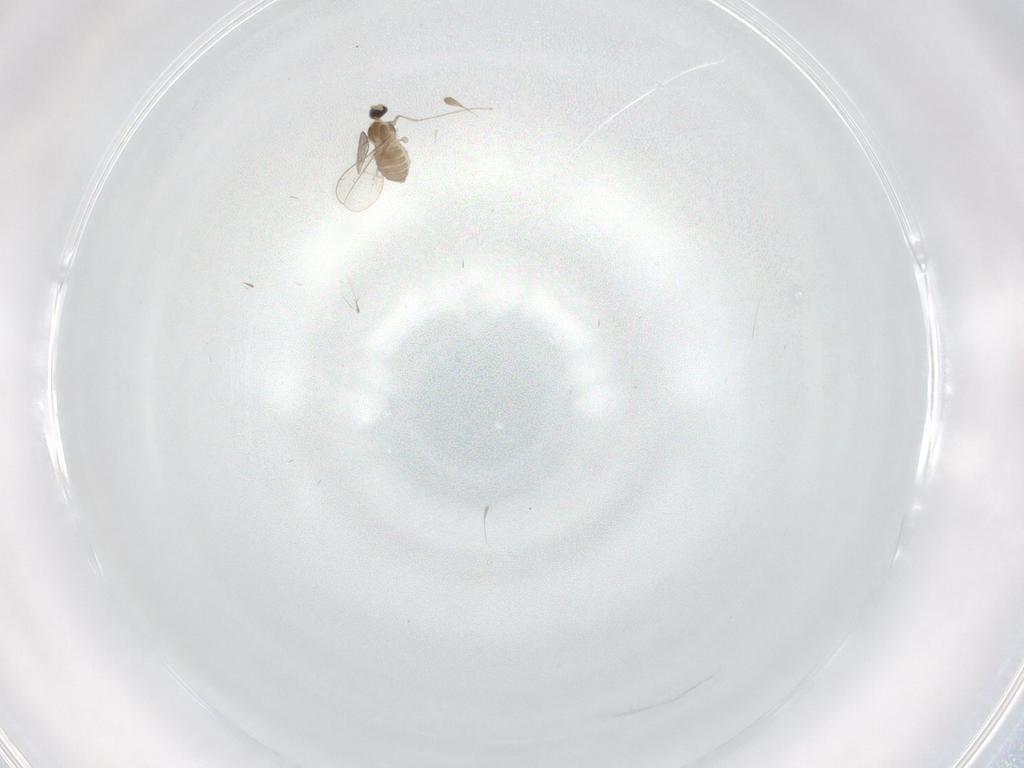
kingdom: Animalia
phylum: Arthropoda
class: Insecta
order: Diptera
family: Cecidomyiidae
